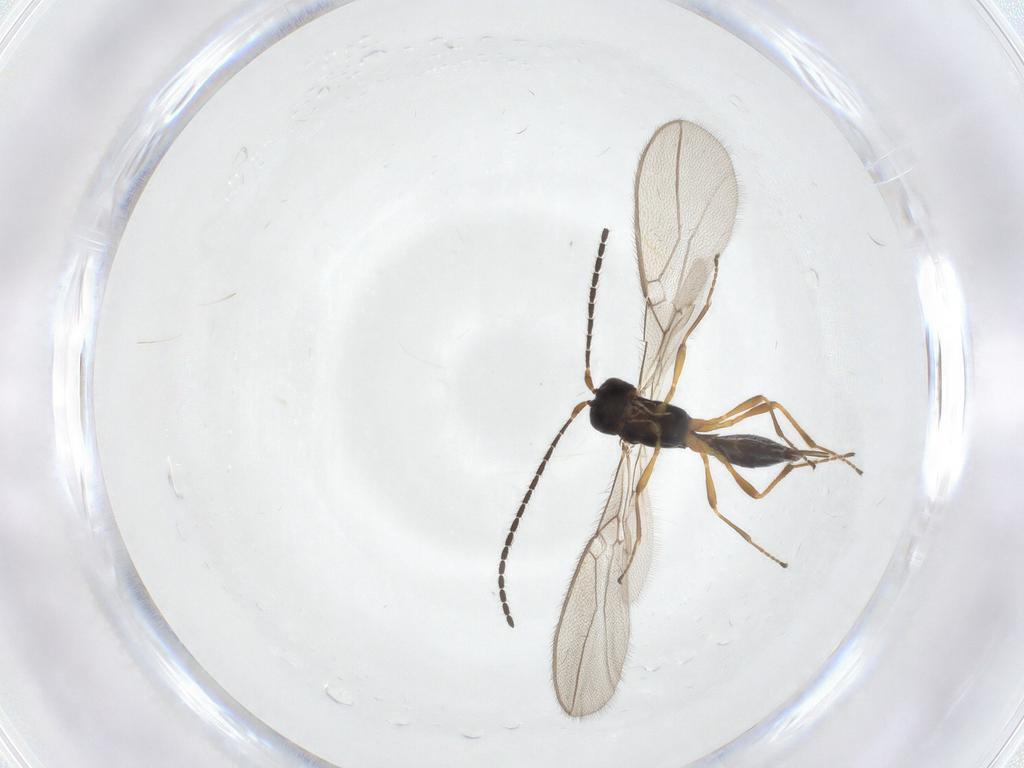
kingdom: Animalia
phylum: Arthropoda
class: Insecta
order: Hymenoptera
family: Braconidae
